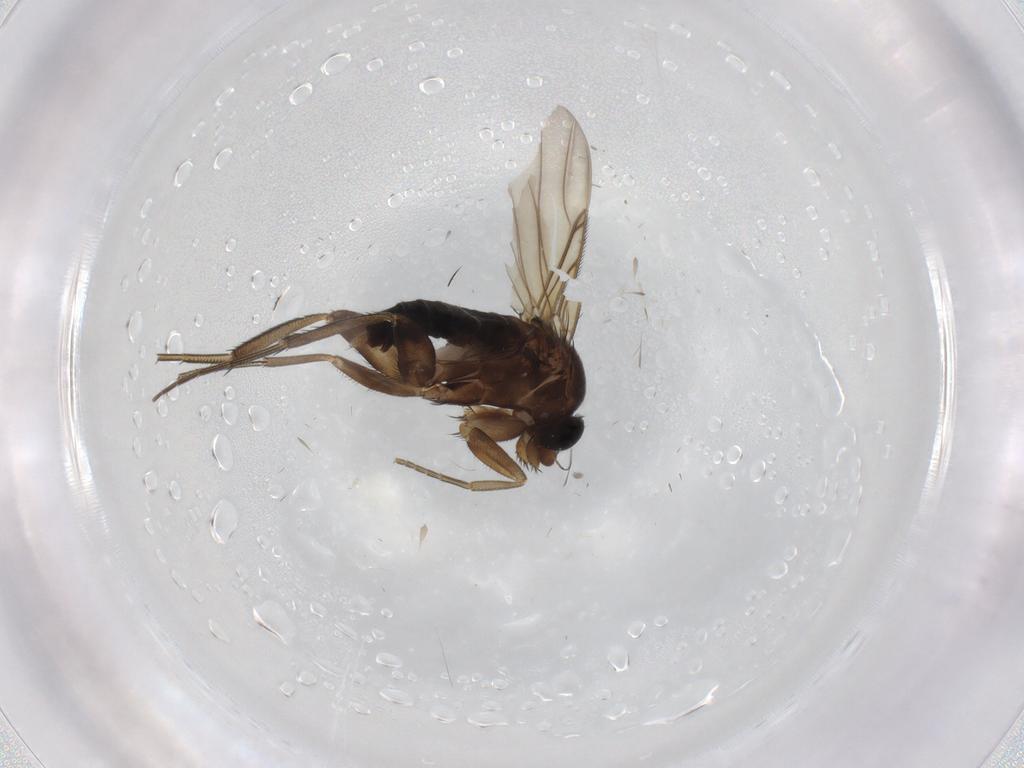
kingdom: Animalia
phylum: Arthropoda
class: Insecta
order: Diptera
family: Phoridae
